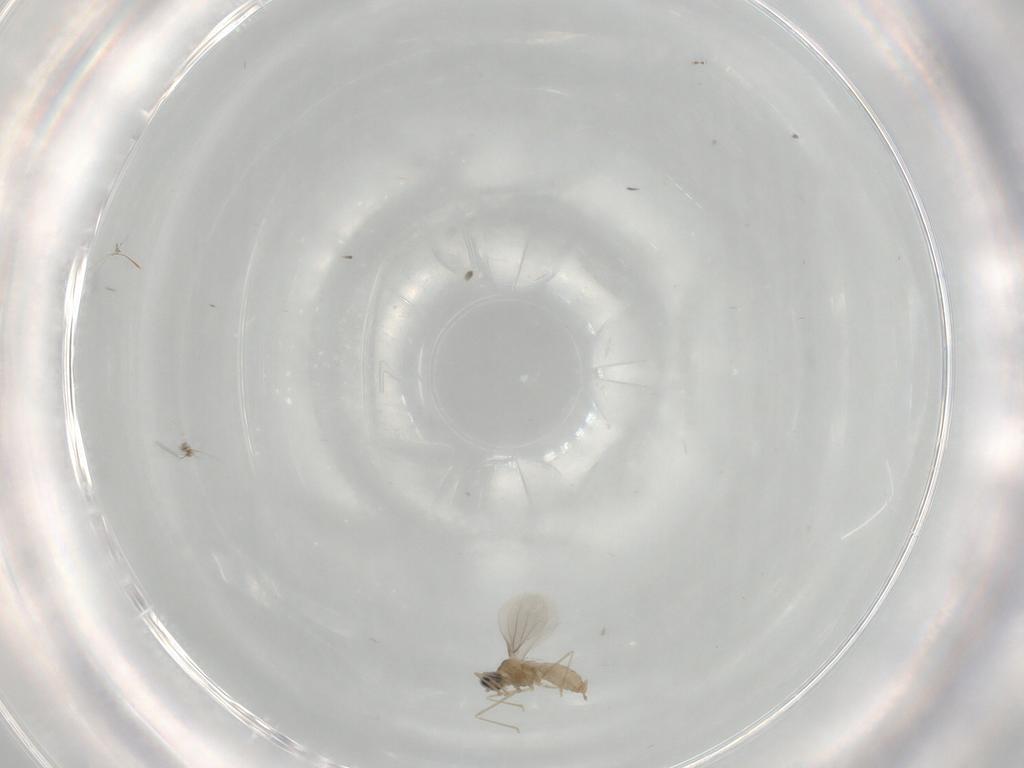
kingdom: Animalia
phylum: Arthropoda
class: Insecta
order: Diptera
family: Cecidomyiidae
